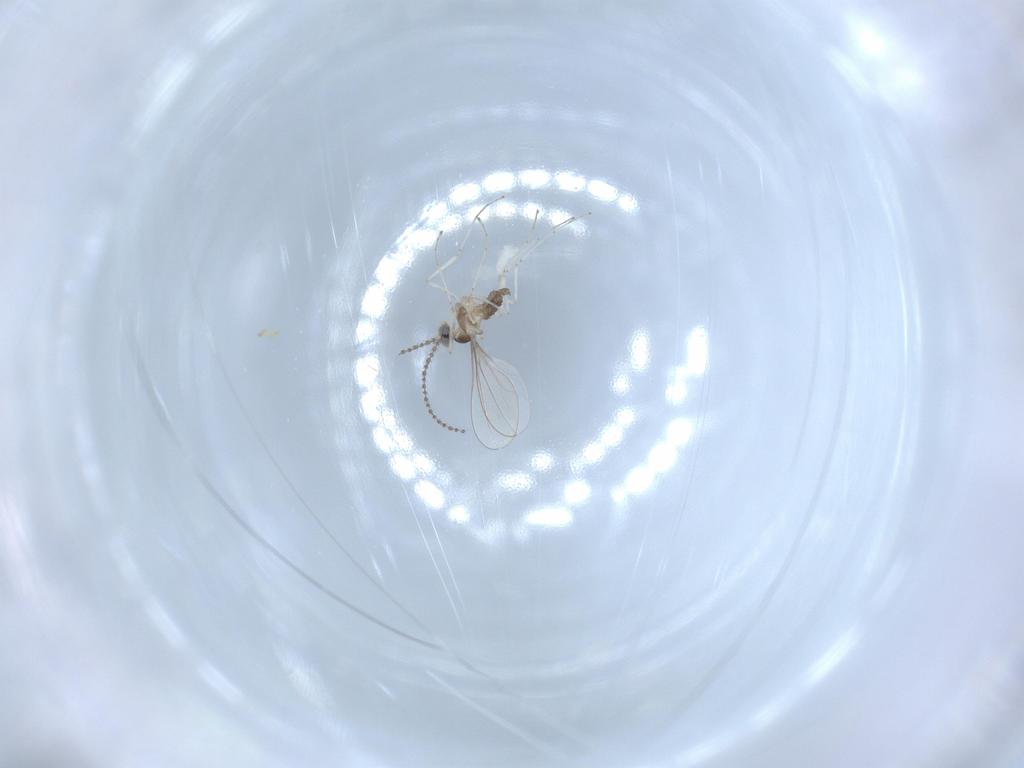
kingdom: Animalia
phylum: Arthropoda
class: Insecta
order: Diptera
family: Cecidomyiidae
